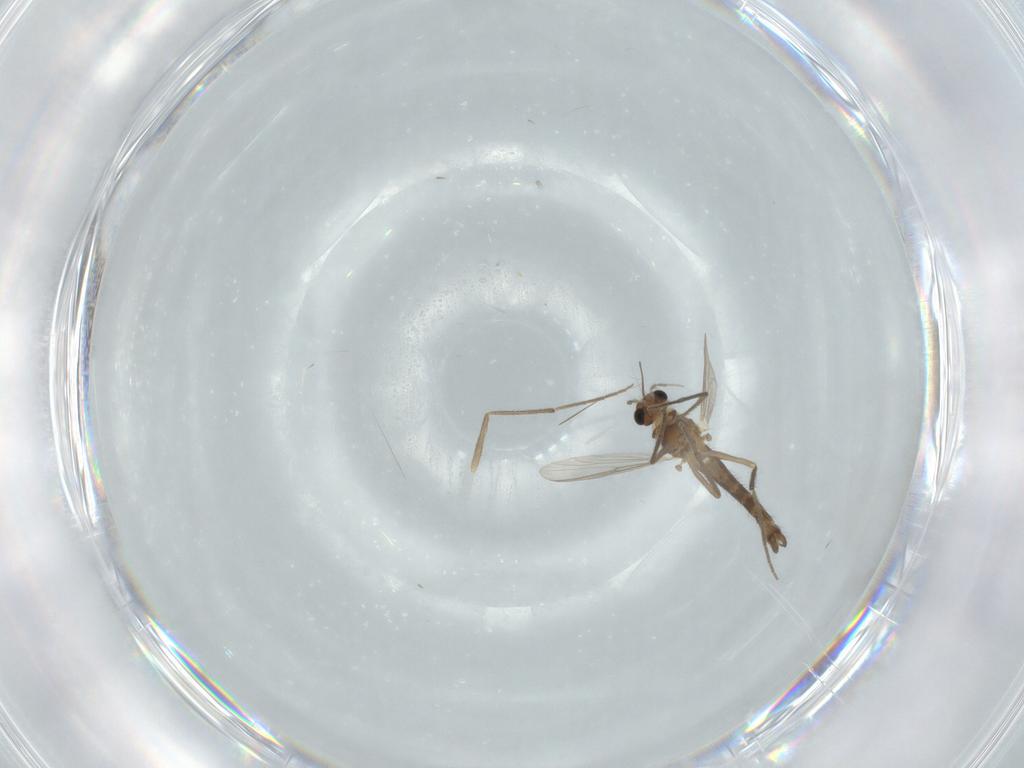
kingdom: Animalia
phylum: Arthropoda
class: Insecta
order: Diptera
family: Chironomidae
